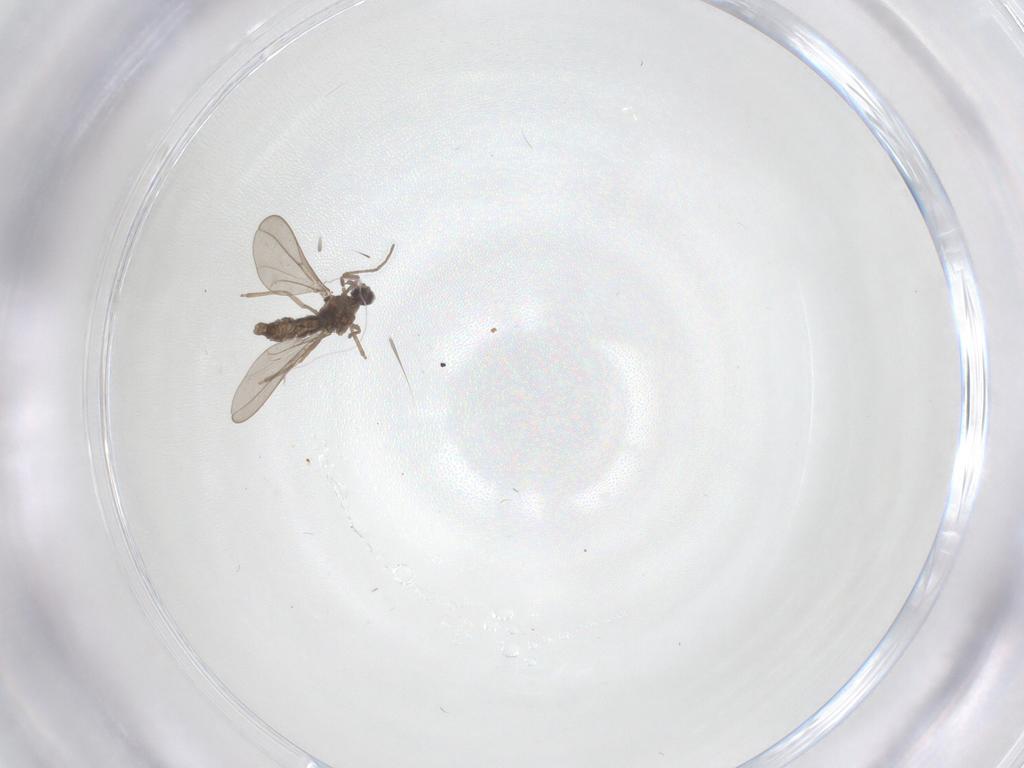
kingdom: Animalia
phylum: Arthropoda
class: Insecta
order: Diptera
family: Cecidomyiidae
